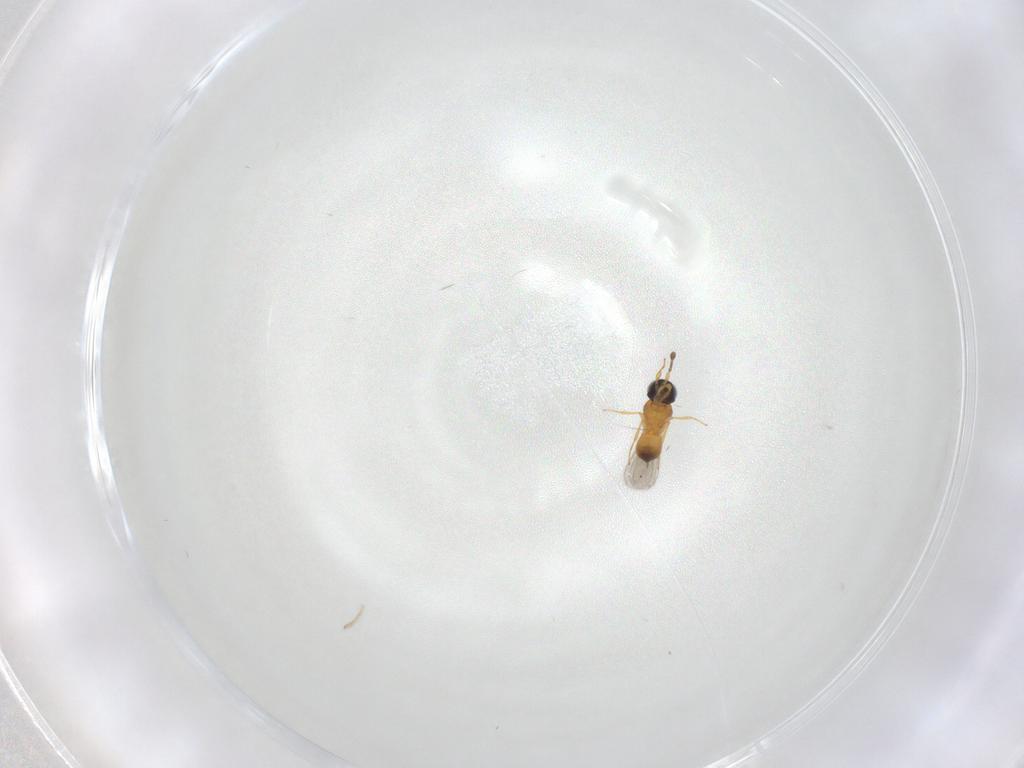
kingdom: Animalia
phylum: Arthropoda
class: Insecta
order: Hymenoptera
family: Scelionidae
